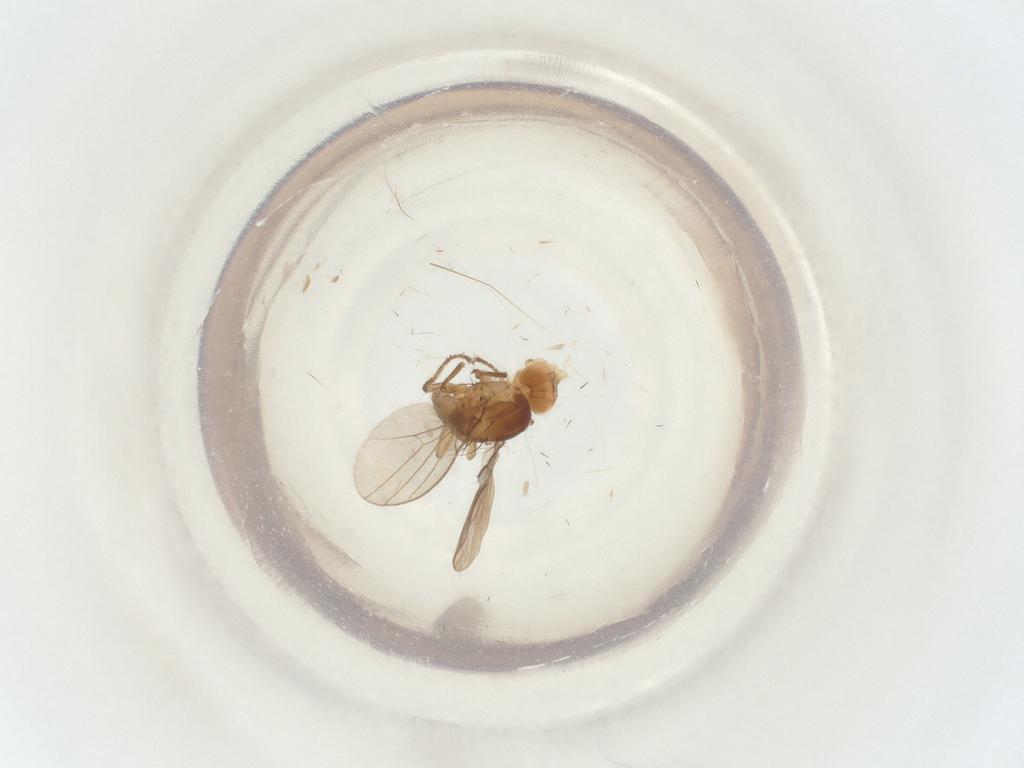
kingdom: Animalia
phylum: Arthropoda
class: Insecta
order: Diptera
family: Agromyzidae
